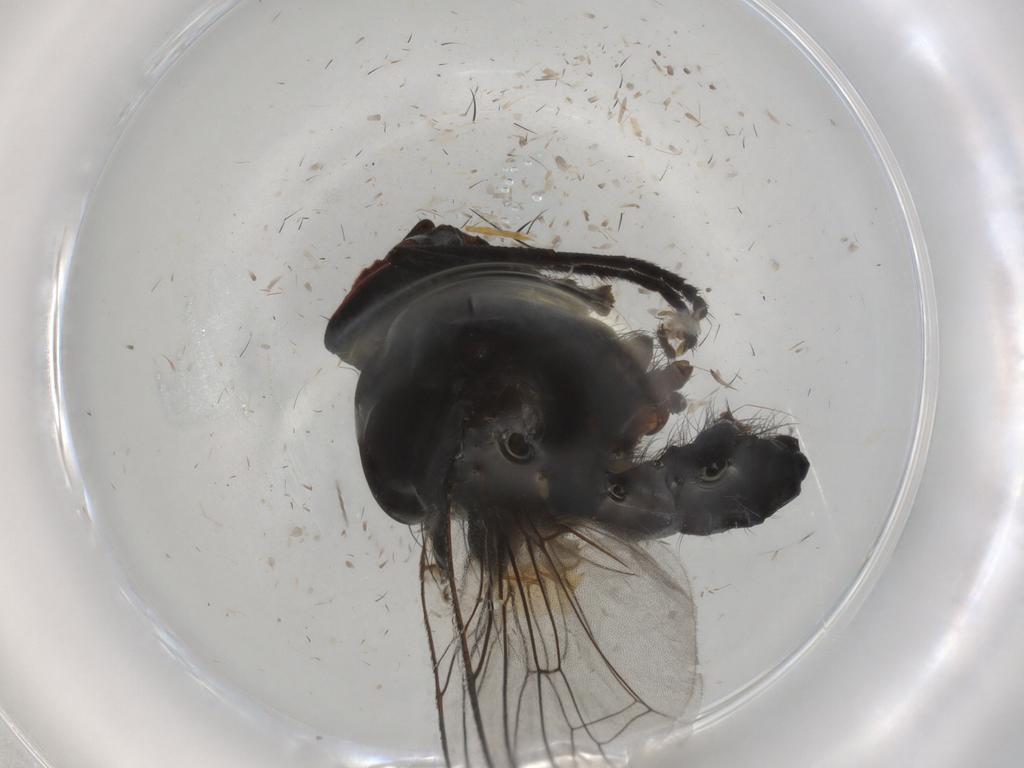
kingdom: Animalia
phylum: Arthropoda
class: Insecta
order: Diptera
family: Anthomyiidae
